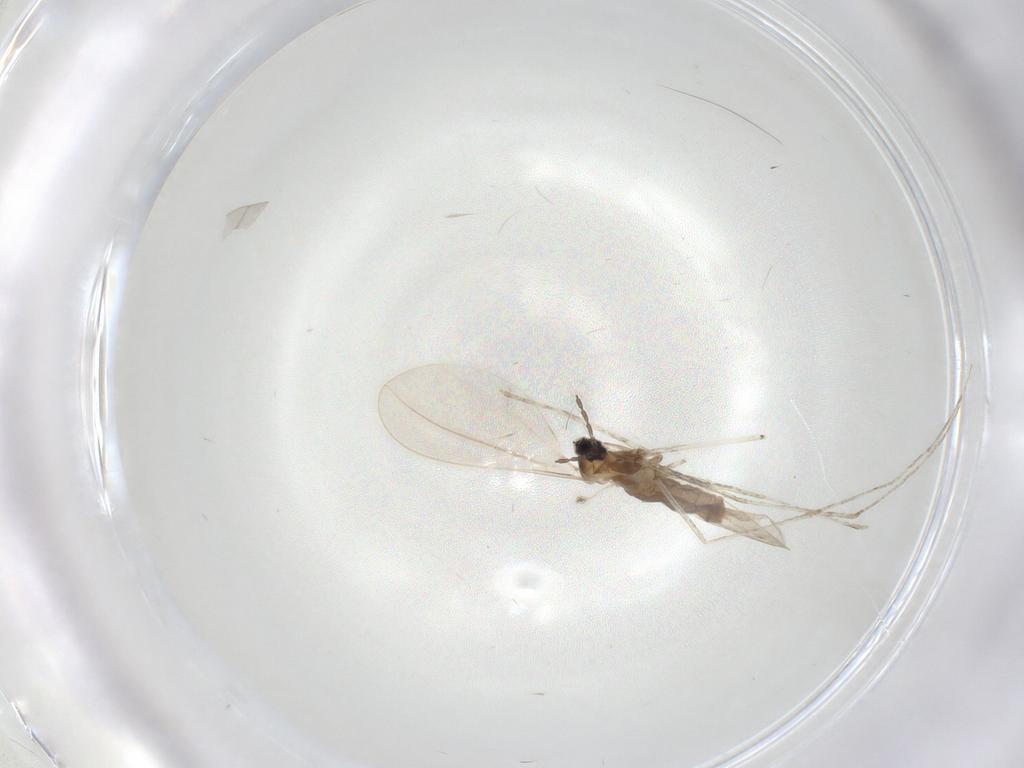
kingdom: Animalia
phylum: Arthropoda
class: Insecta
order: Diptera
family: Cecidomyiidae
